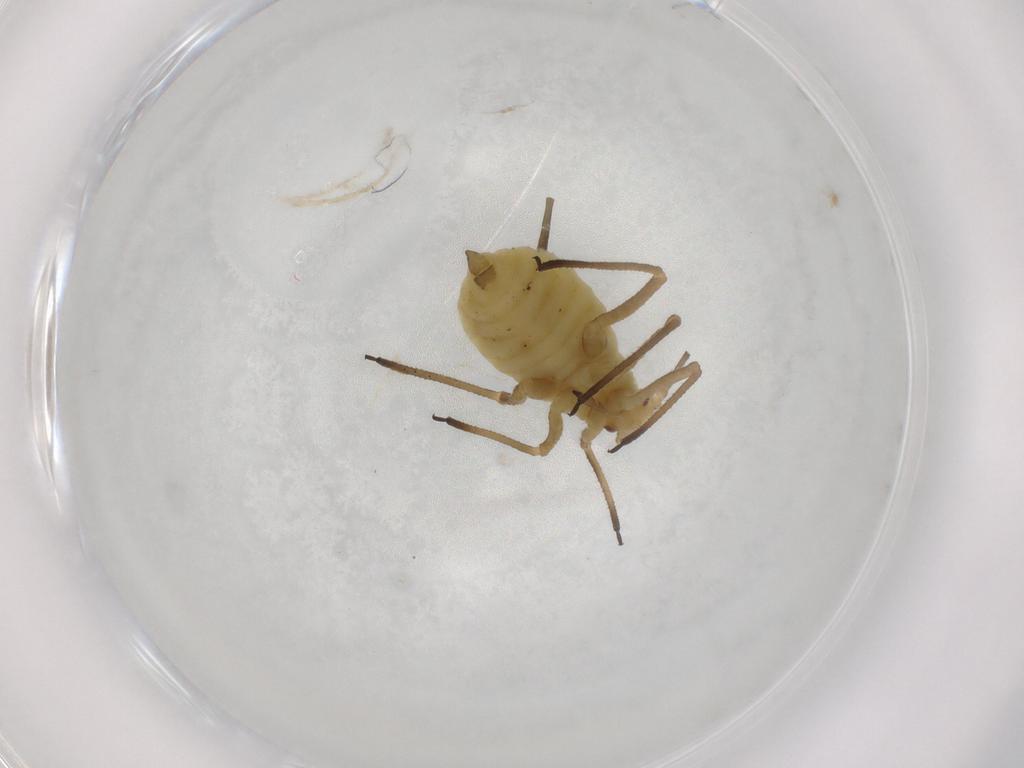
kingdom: Animalia
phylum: Arthropoda
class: Insecta
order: Hemiptera
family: Aphididae
